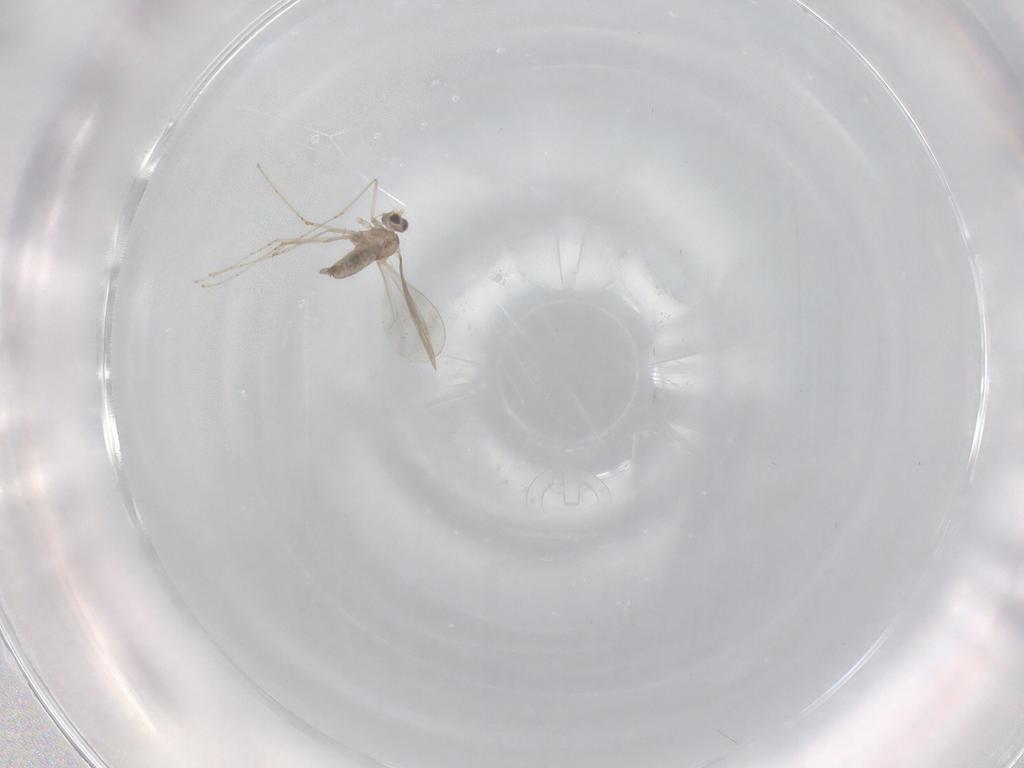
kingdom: Animalia
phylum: Arthropoda
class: Insecta
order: Diptera
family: Cecidomyiidae
